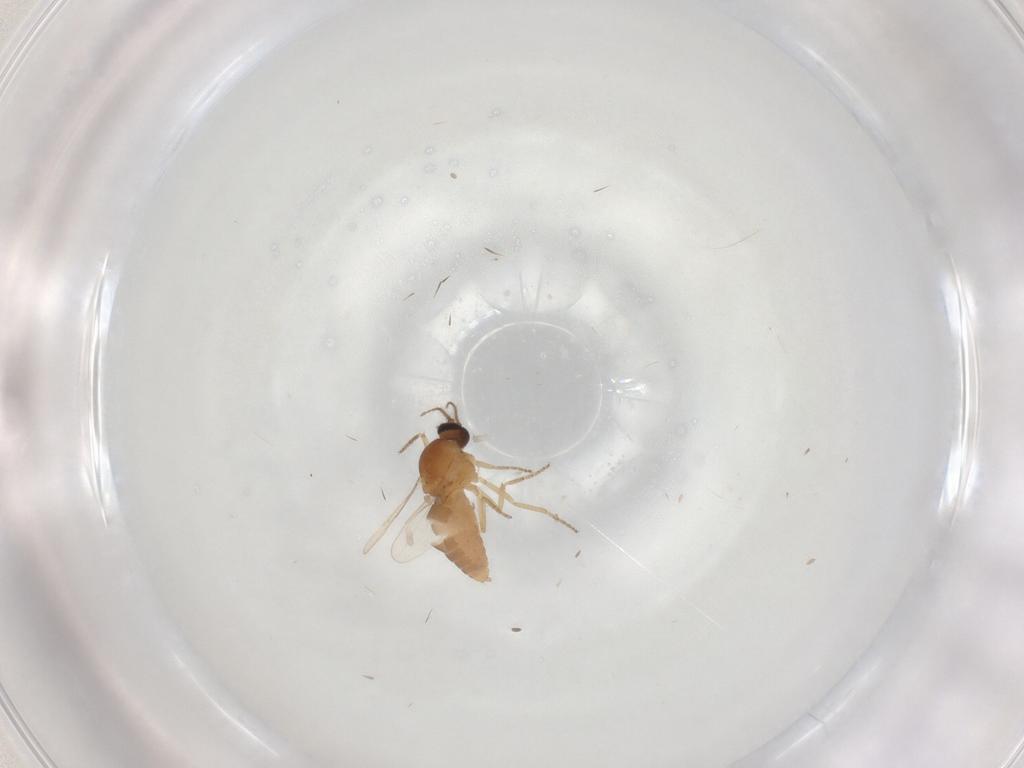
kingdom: Animalia
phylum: Arthropoda
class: Insecta
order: Diptera
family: Ceratopogonidae
